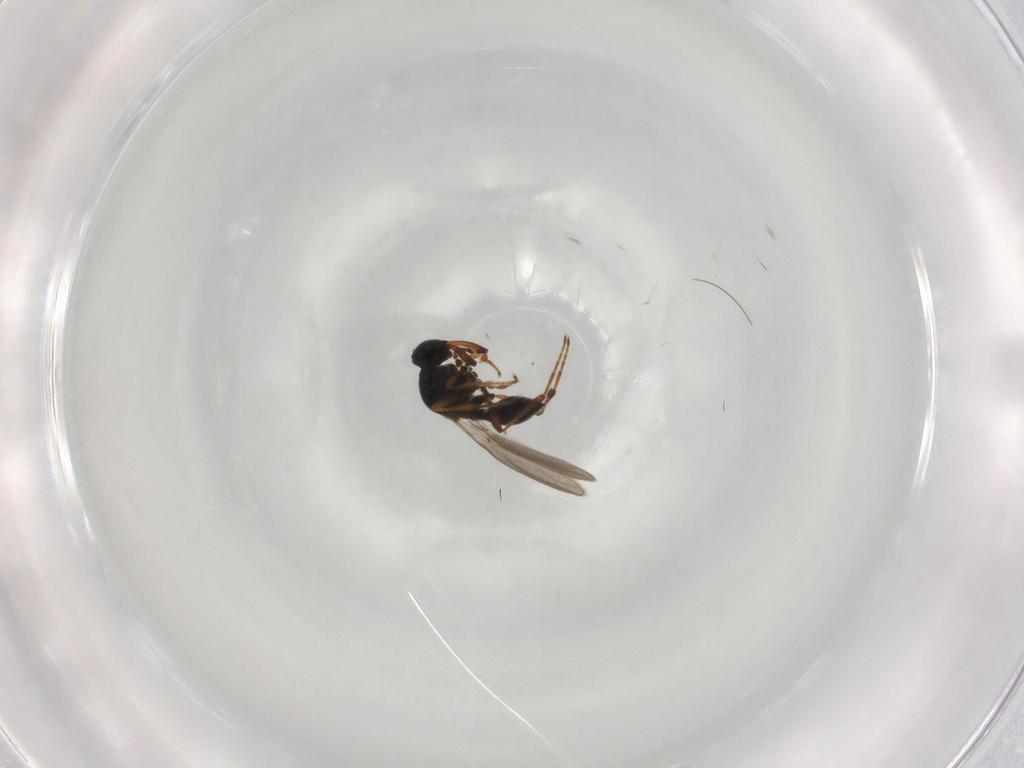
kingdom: Animalia
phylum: Arthropoda
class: Insecta
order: Hymenoptera
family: Platygastridae
